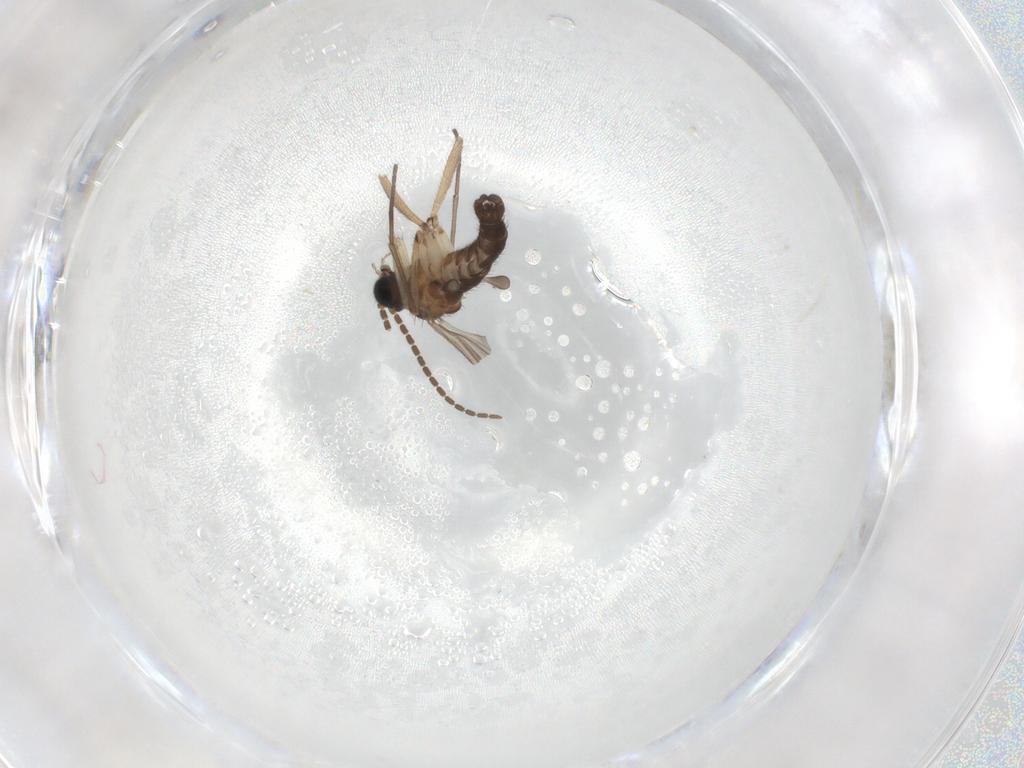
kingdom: Animalia
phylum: Arthropoda
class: Insecta
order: Diptera
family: Sciaridae
